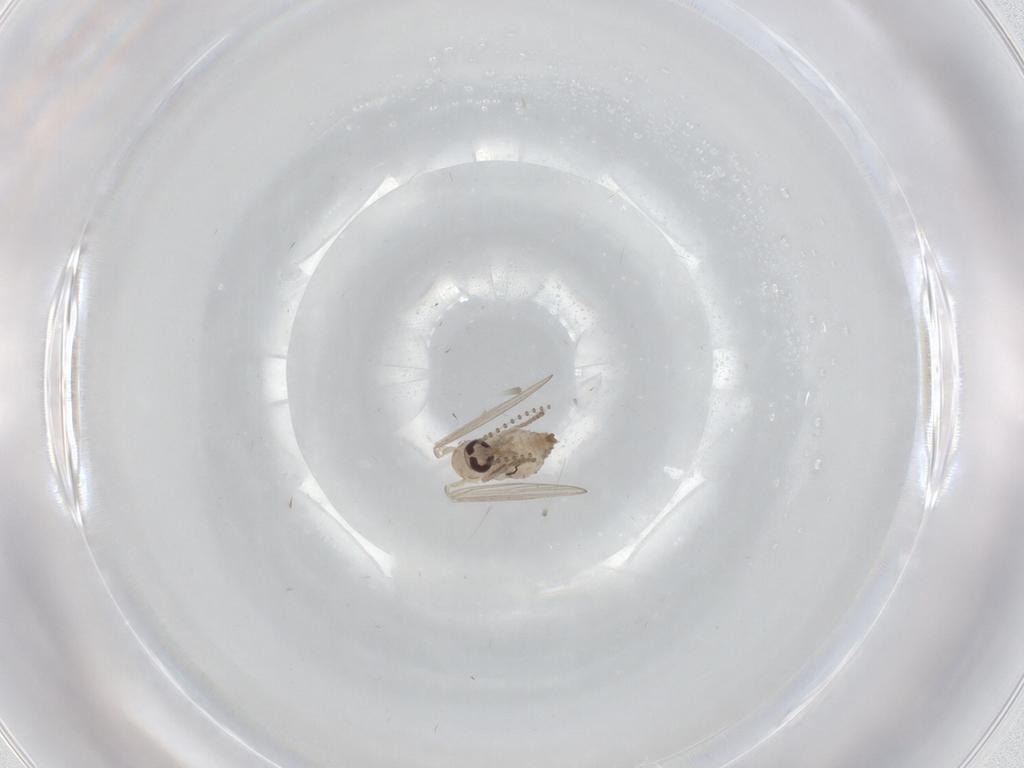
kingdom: Animalia
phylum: Arthropoda
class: Insecta
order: Diptera
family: Psychodidae
